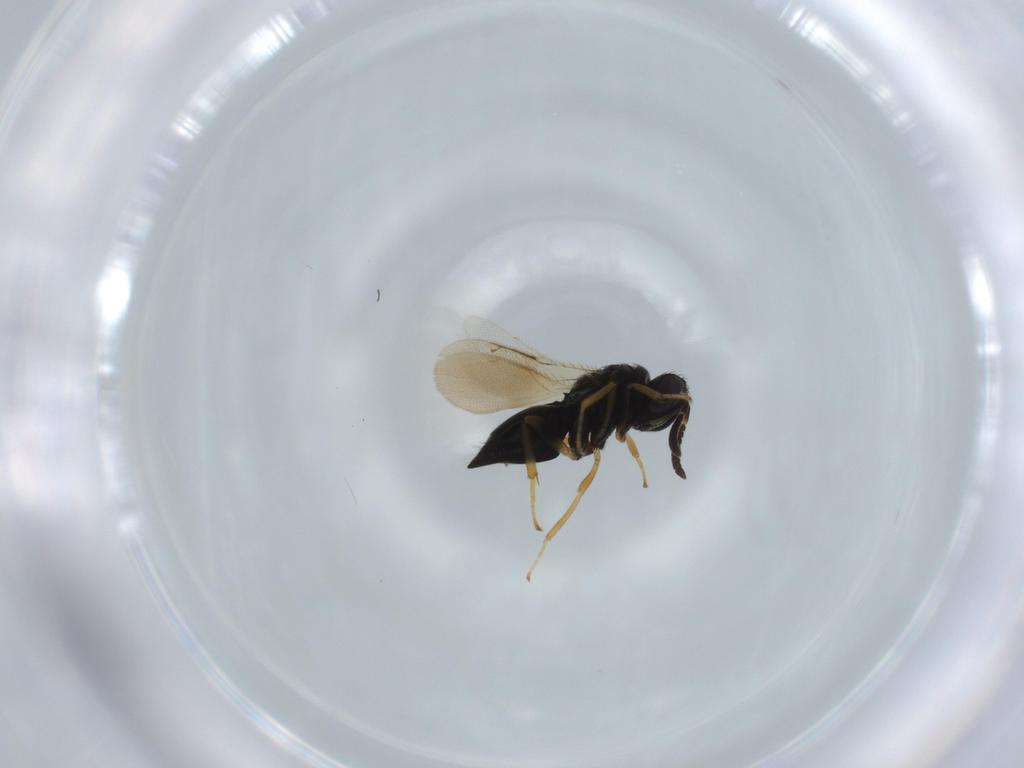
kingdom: Animalia
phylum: Arthropoda
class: Insecta
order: Hymenoptera
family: Pteromalidae
